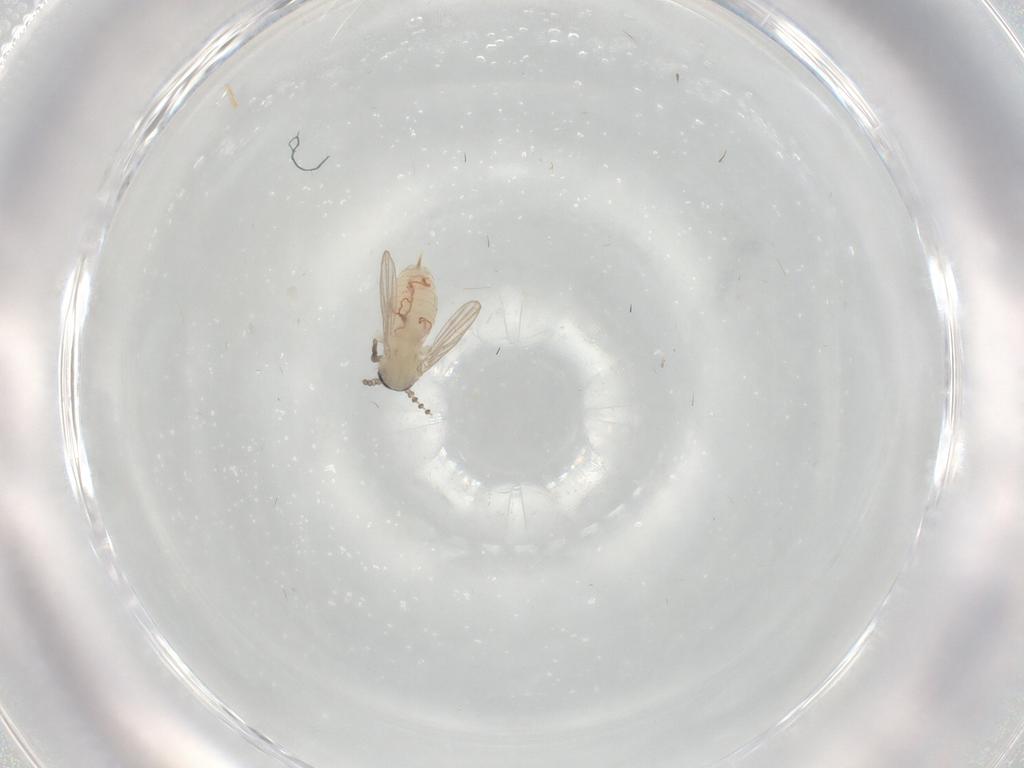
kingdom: Animalia
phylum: Arthropoda
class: Insecta
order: Diptera
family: Psychodidae
